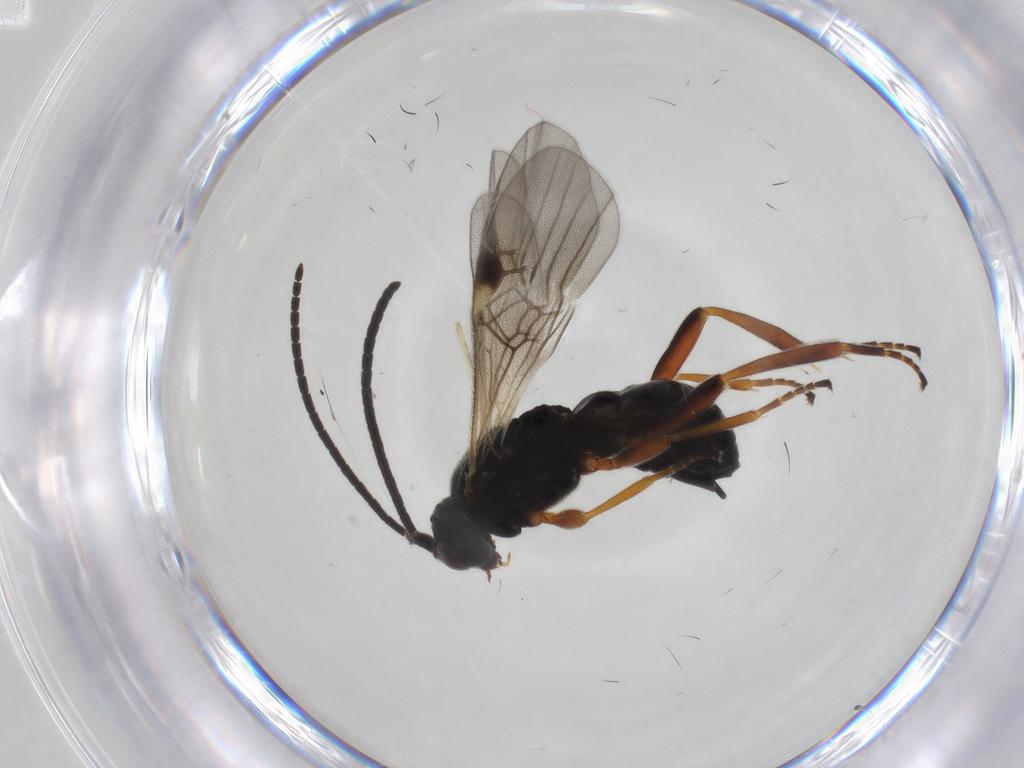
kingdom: Animalia
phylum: Arthropoda
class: Insecta
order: Hymenoptera
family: Braconidae
